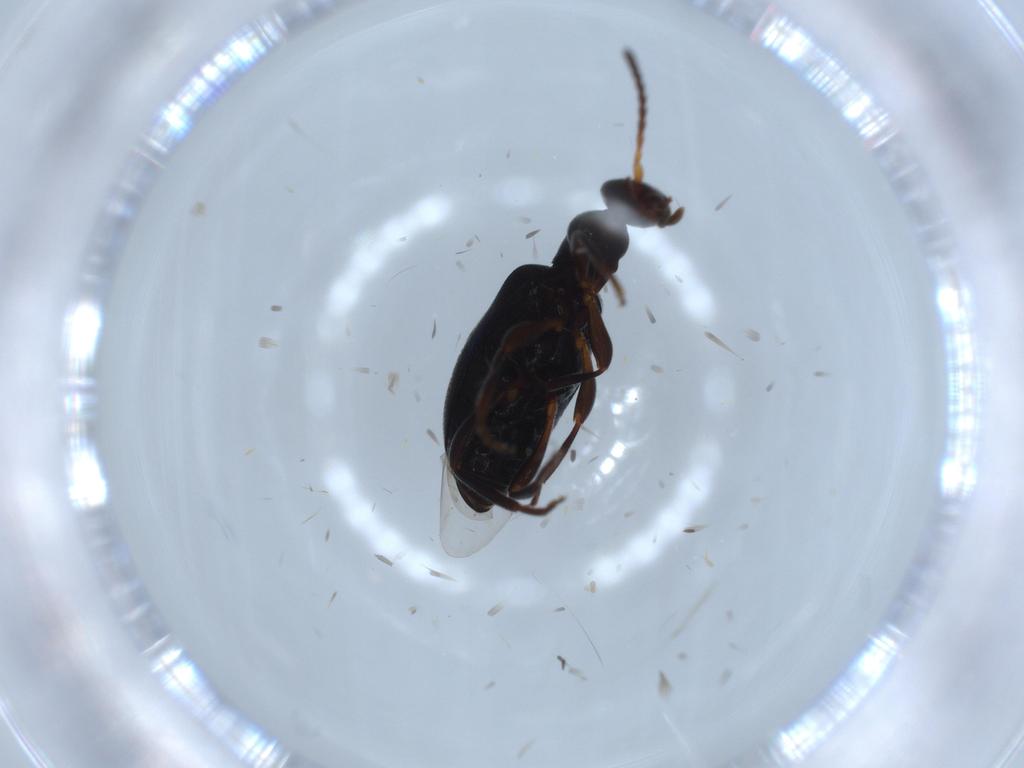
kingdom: Animalia
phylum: Arthropoda
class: Insecta
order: Coleoptera
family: Anthicidae
